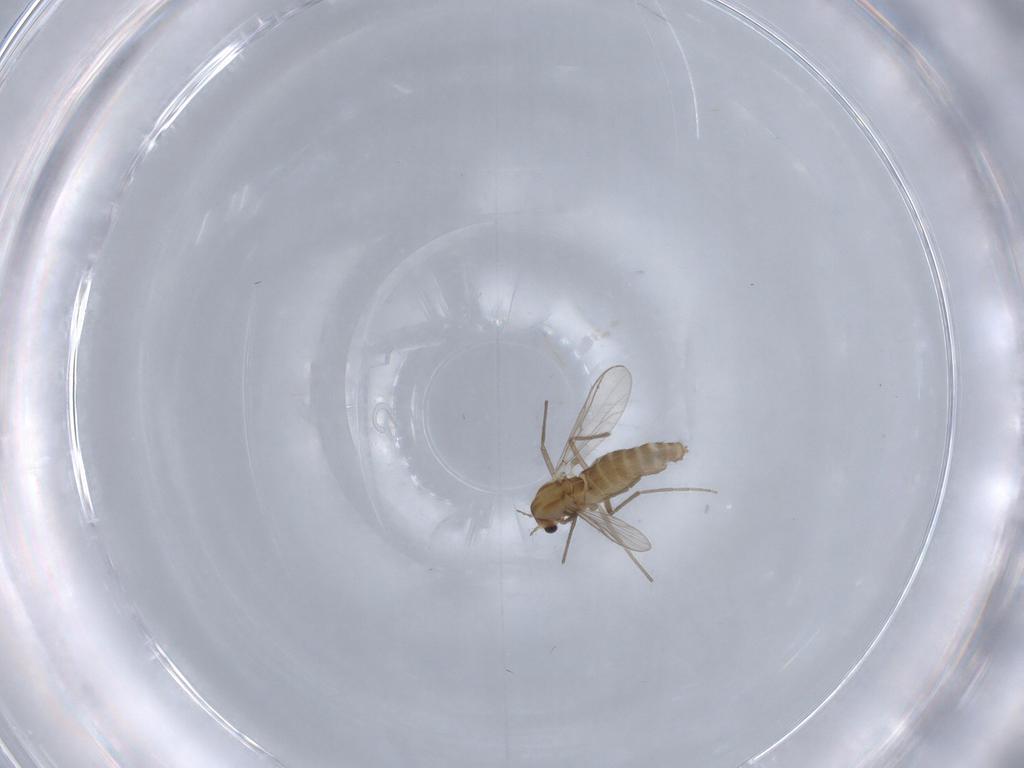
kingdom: Animalia
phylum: Arthropoda
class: Insecta
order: Diptera
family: Chironomidae
